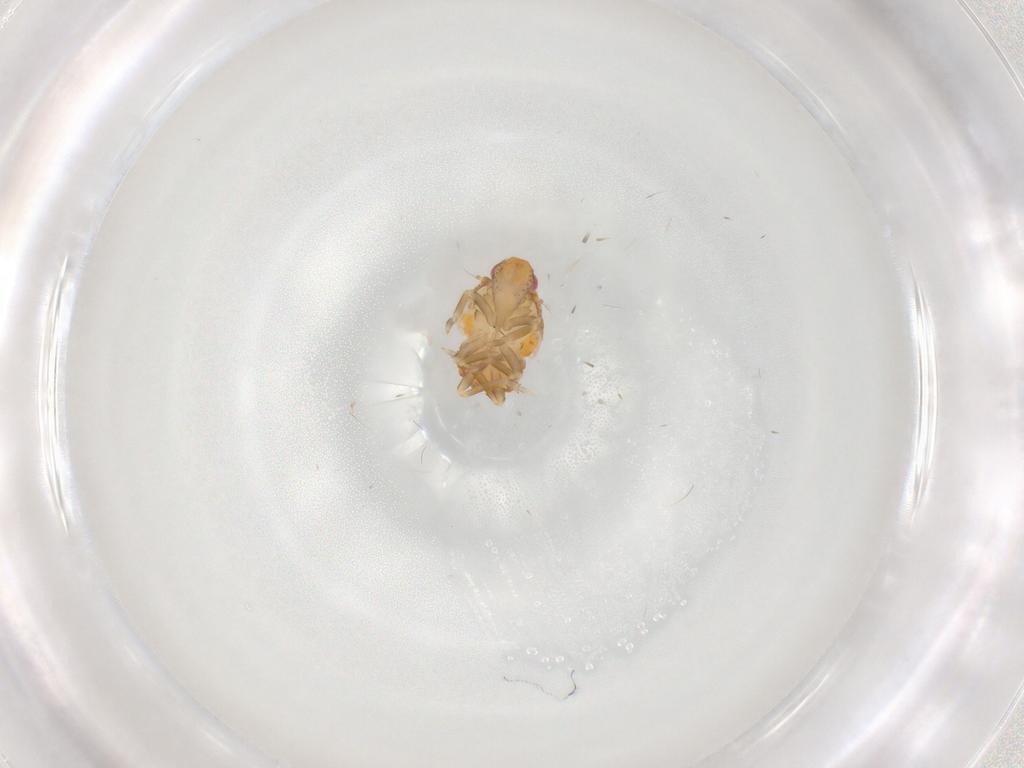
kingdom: Animalia
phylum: Arthropoda
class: Insecta
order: Hemiptera
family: Flatidae
